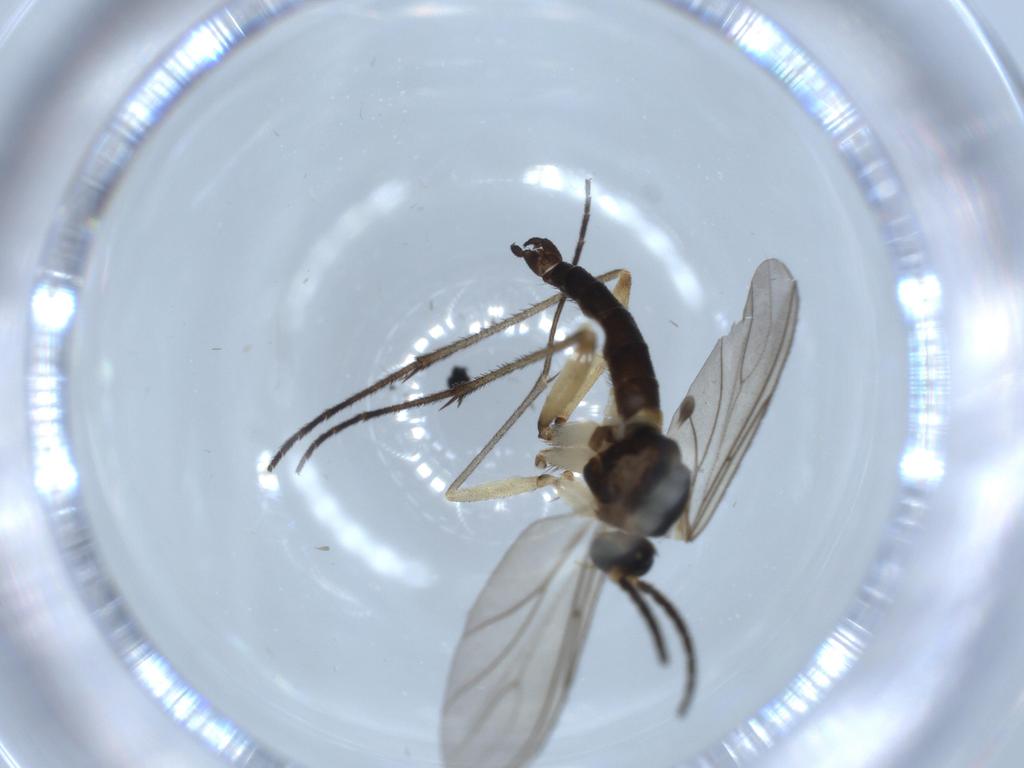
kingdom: Animalia
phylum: Arthropoda
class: Insecta
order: Diptera
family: Sciaridae
